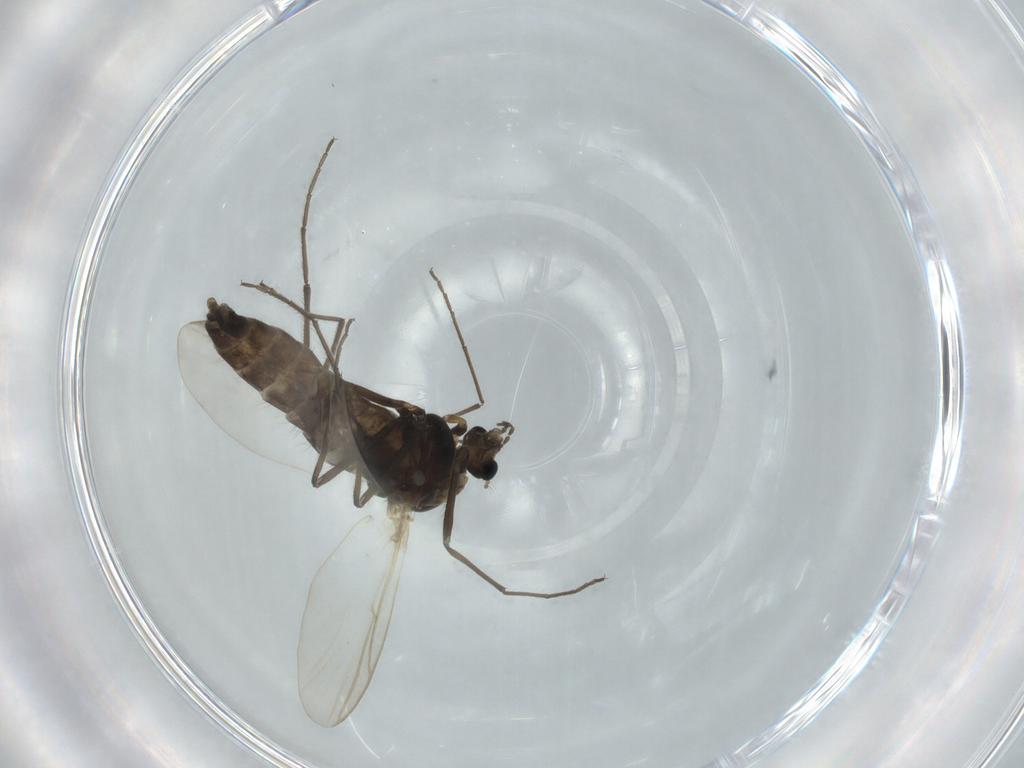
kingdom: Animalia
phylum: Arthropoda
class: Insecta
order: Diptera
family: Chironomidae
